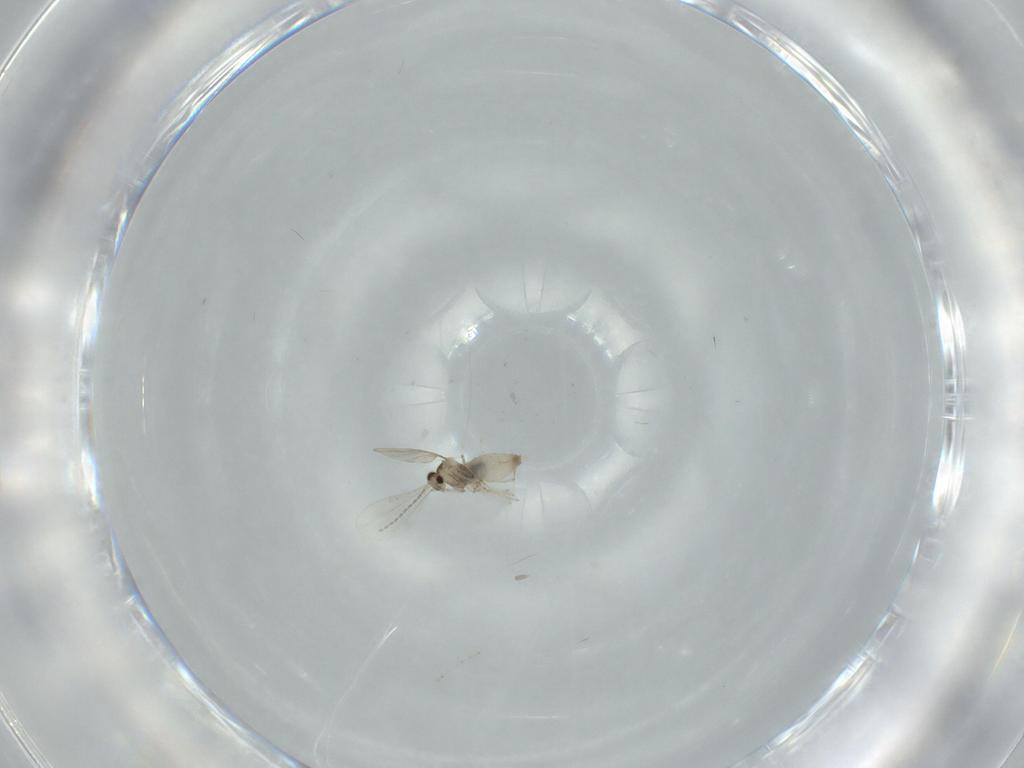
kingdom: Animalia
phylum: Arthropoda
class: Insecta
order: Diptera
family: Cecidomyiidae
